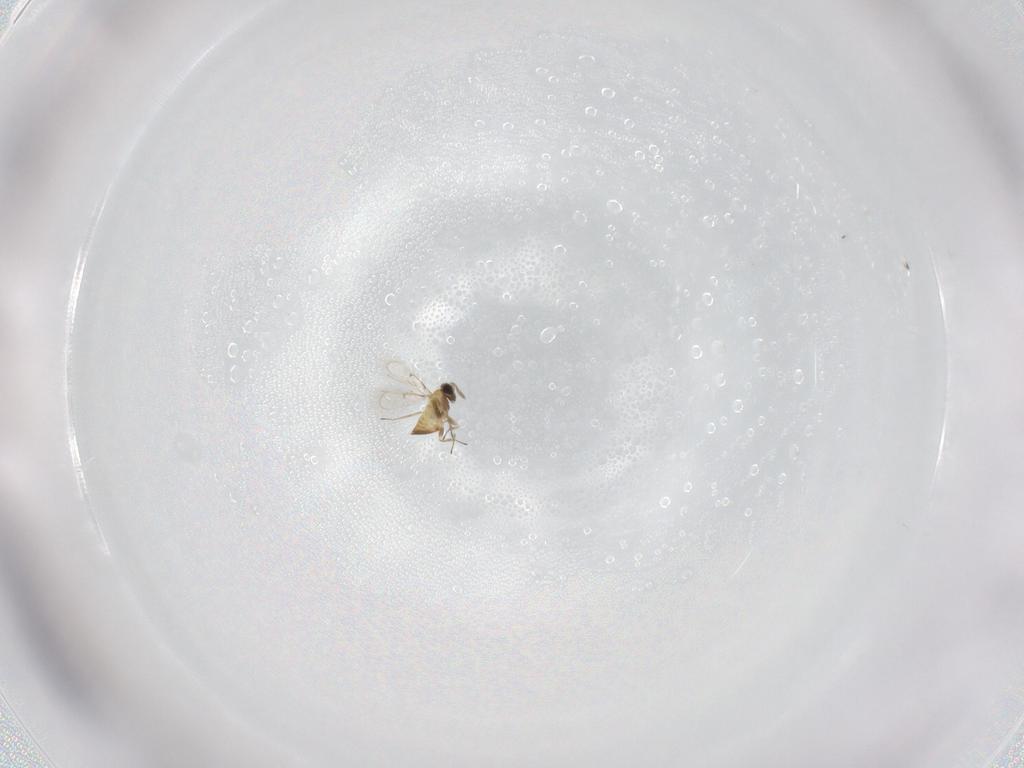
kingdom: Animalia
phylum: Arthropoda
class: Insecta
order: Hymenoptera
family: Trichogrammatidae
